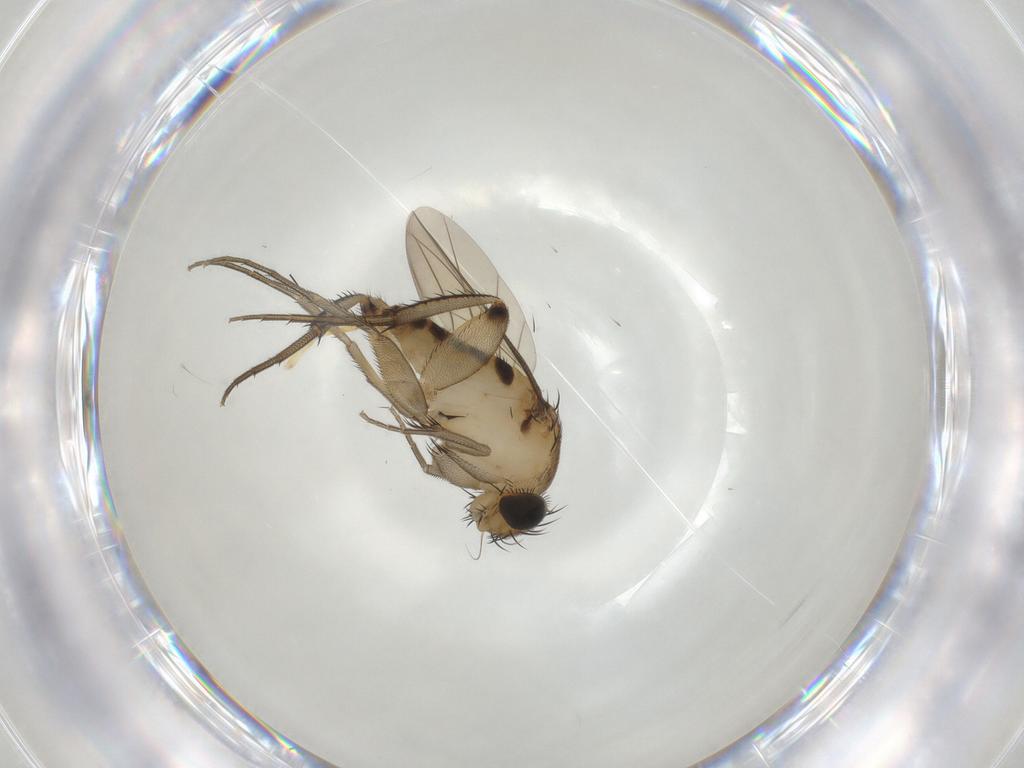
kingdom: Animalia
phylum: Arthropoda
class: Insecta
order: Diptera
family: Phoridae
